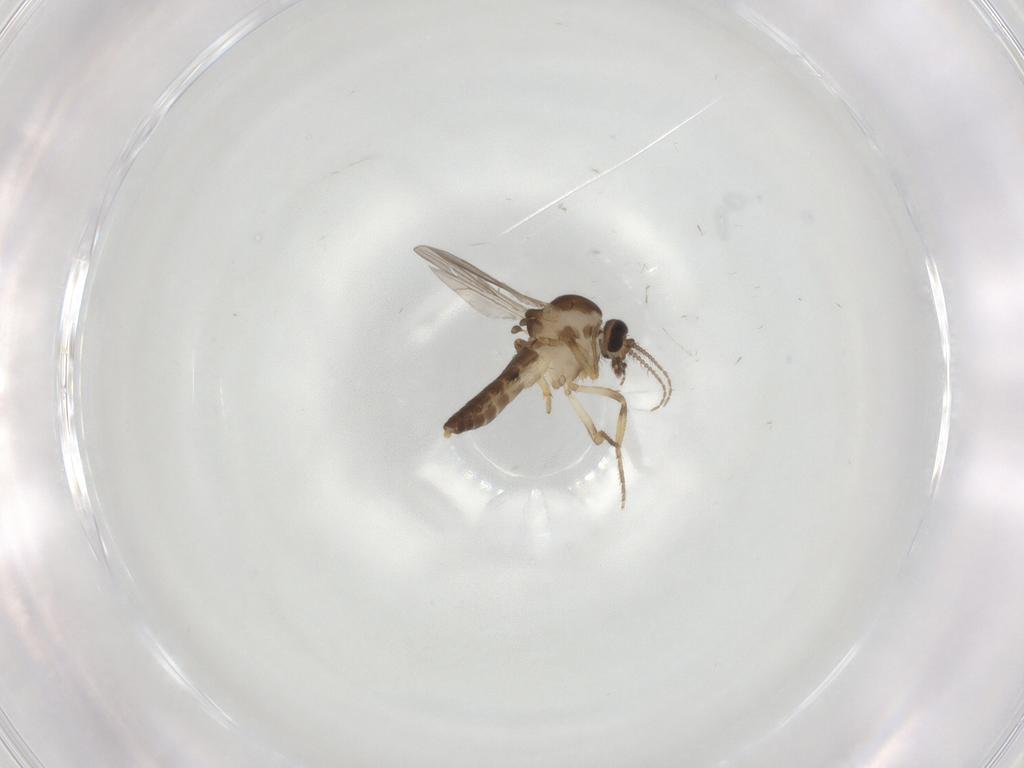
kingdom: Animalia
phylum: Arthropoda
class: Insecta
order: Diptera
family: Ceratopogonidae
